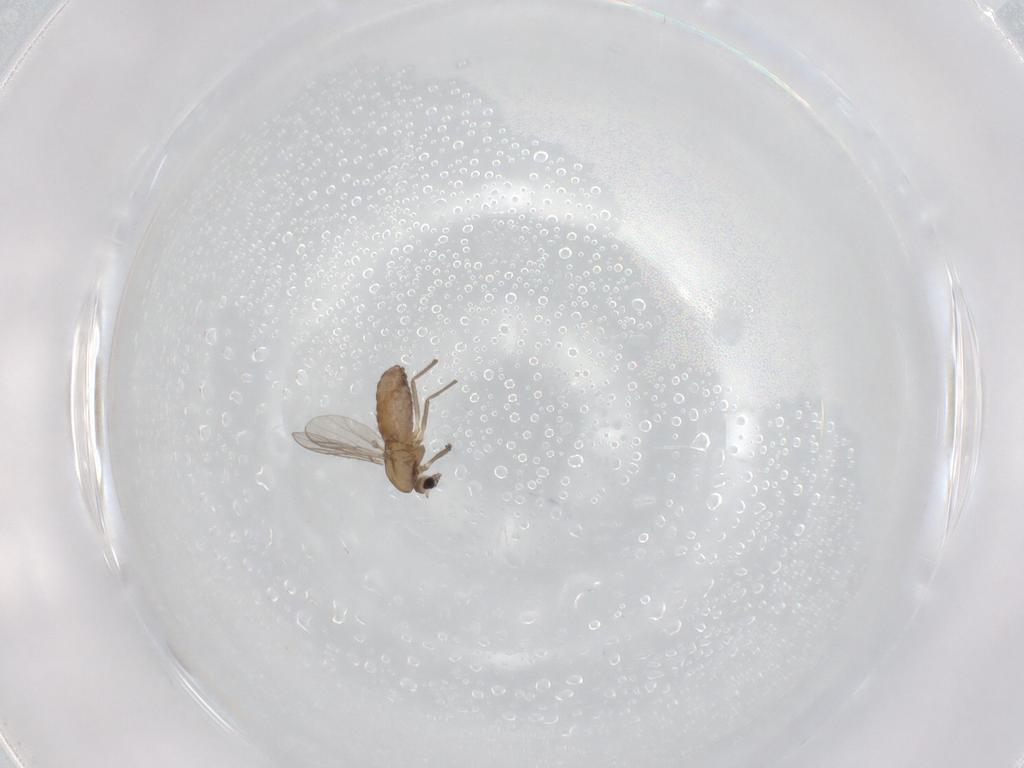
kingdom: Animalia
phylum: Arthropoda
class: Insecta
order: Diptera
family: Chironomidae
